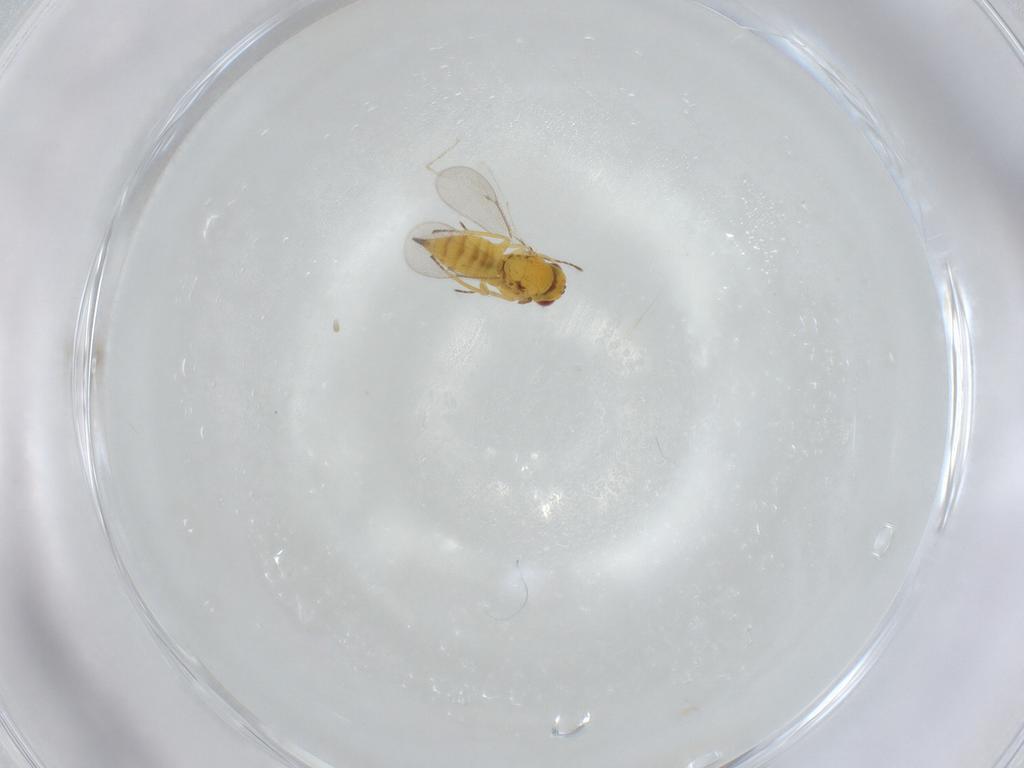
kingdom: Animalia
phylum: Arthropoda
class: Insecta
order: Hymenoptera
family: Eulophidae
